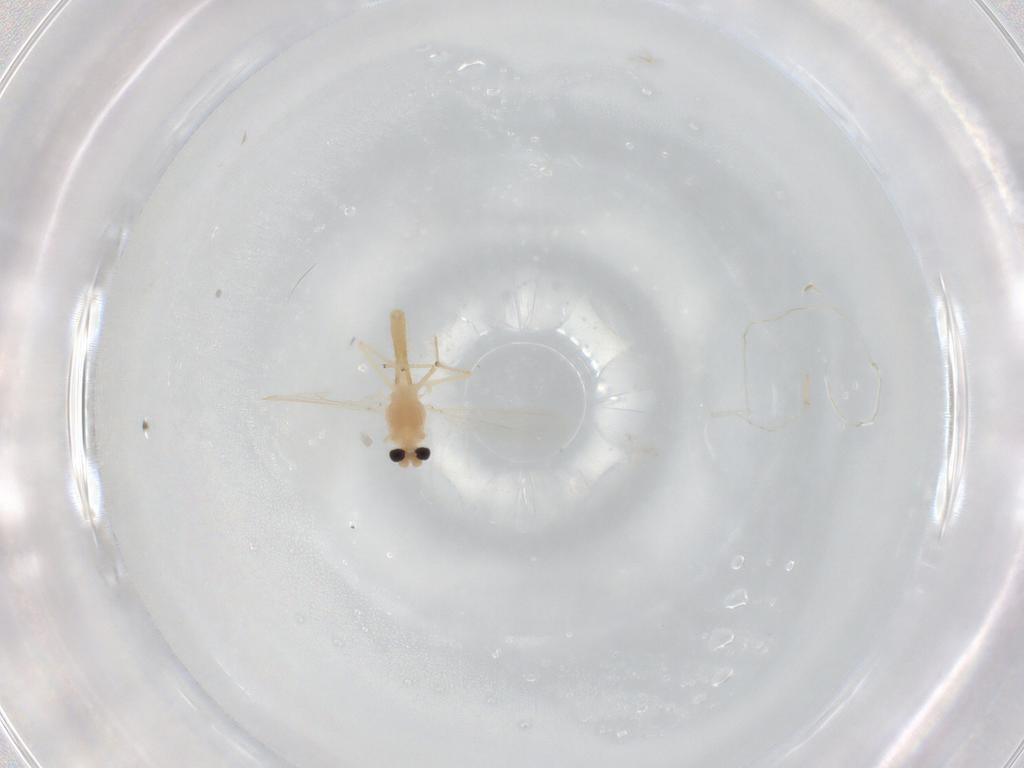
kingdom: Animalia
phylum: Arthropoda
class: Insecta
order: Diptera
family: Chironomidae
